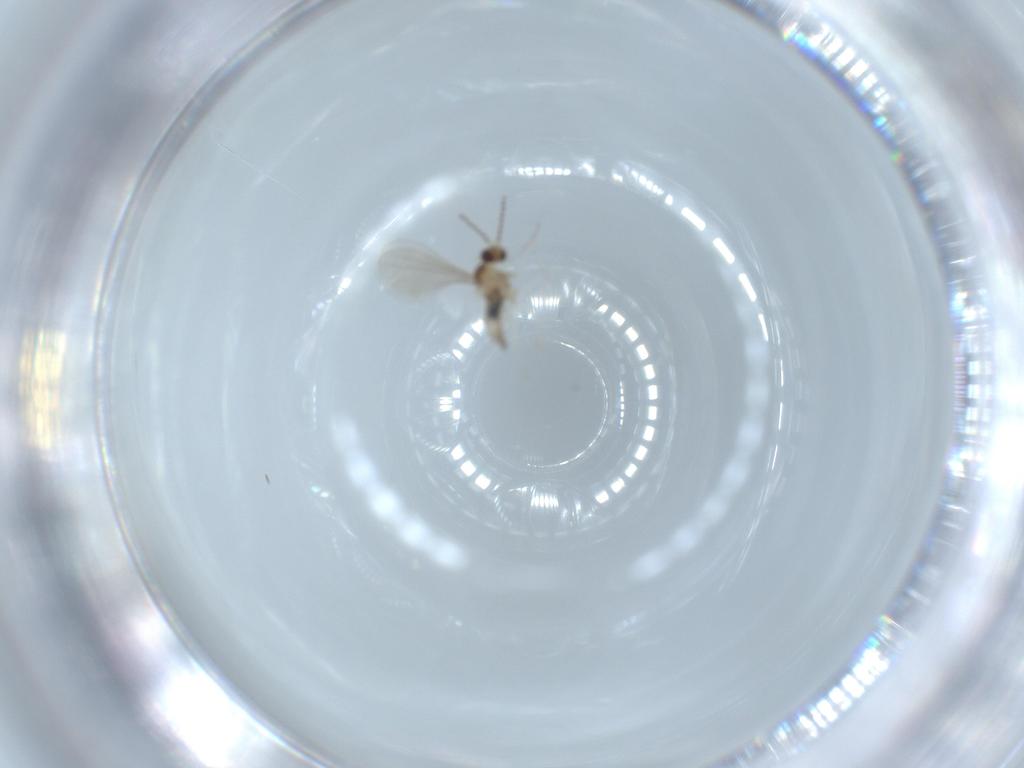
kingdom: Animalia
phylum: Arthropoda
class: Insecta
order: Diptera
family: Cecidomyiidae
